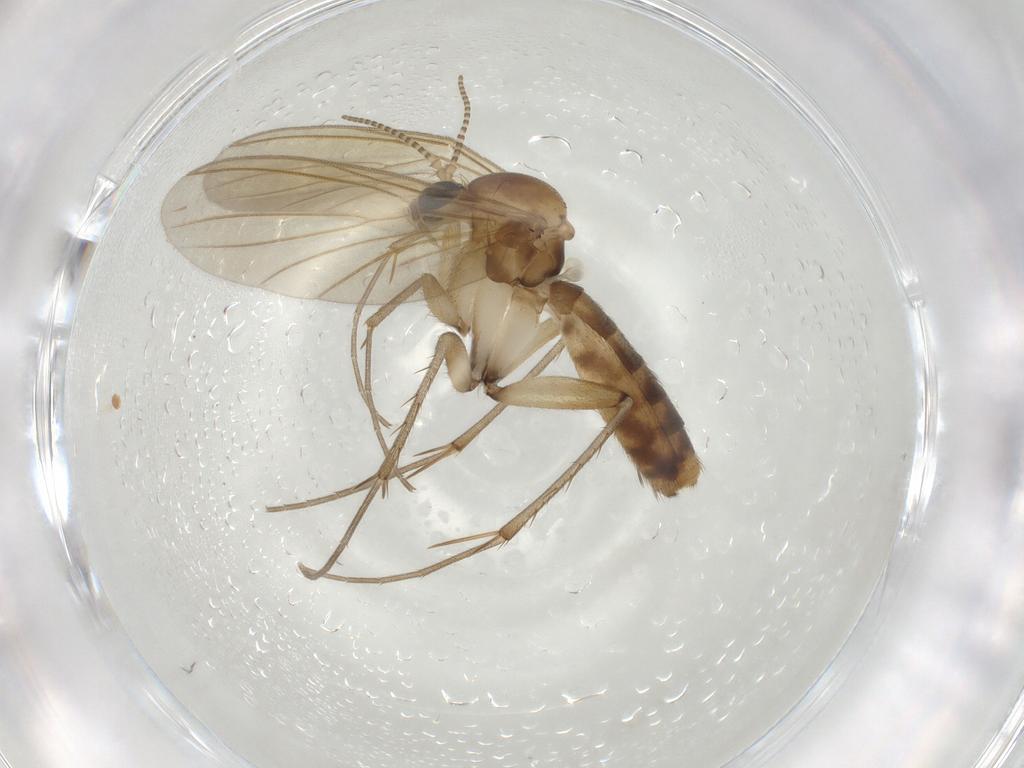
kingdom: Animalia
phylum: Arthropoda
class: Insecta
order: Diptera
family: Mycetophilidae
